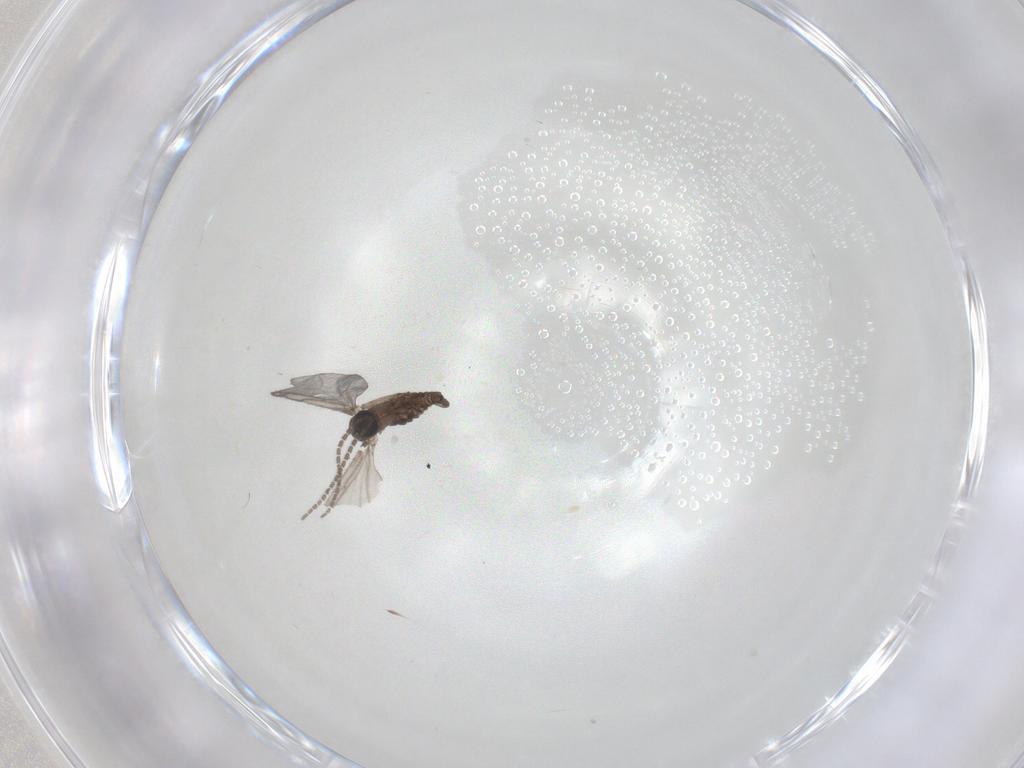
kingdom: Animalia
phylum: Arthropoda
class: Insecta
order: Diptera
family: Sciaridae
